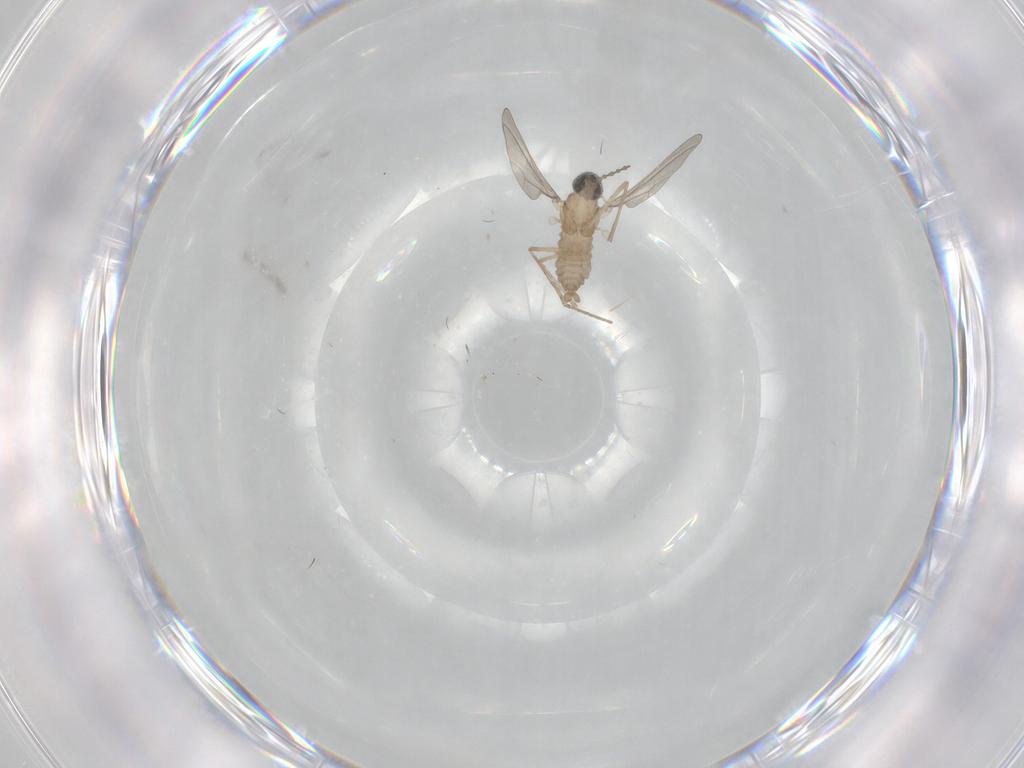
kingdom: Animalia
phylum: Arthropoda
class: Insecta
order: Diptera
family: Cecidomyiidae
